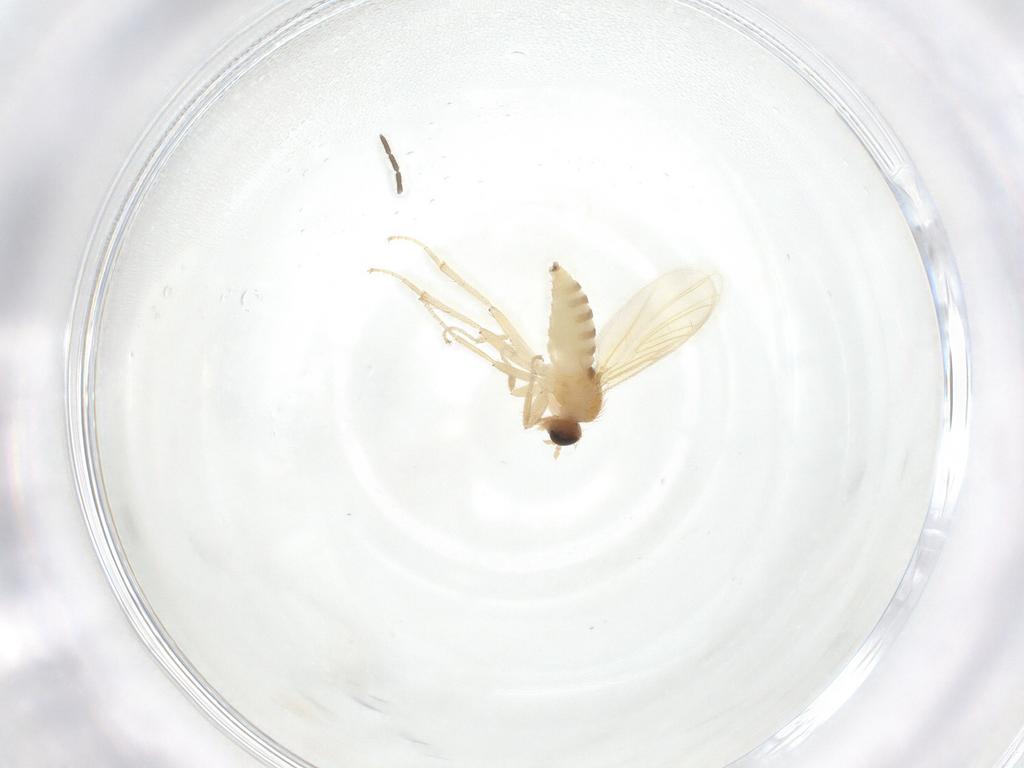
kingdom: Animalia
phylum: Arthropoda
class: Insecta
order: Diptera
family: Hybotidae
